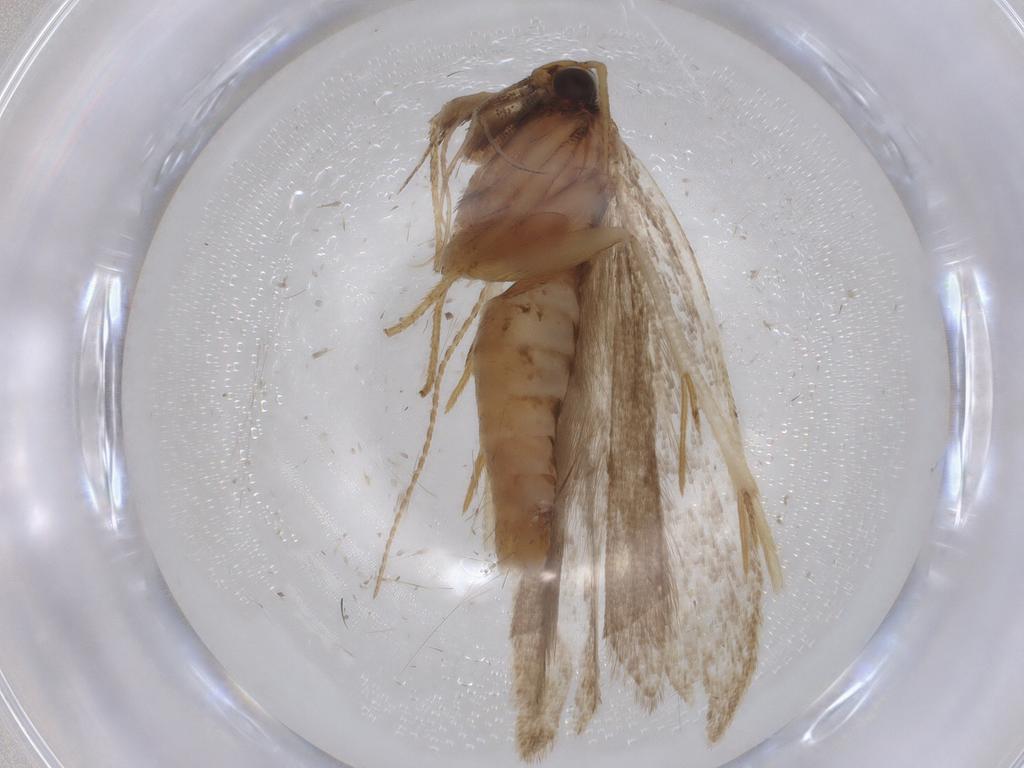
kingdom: Animalia
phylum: Arthropoda
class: Insecta
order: Lepidoptera
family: Gelechiidae
